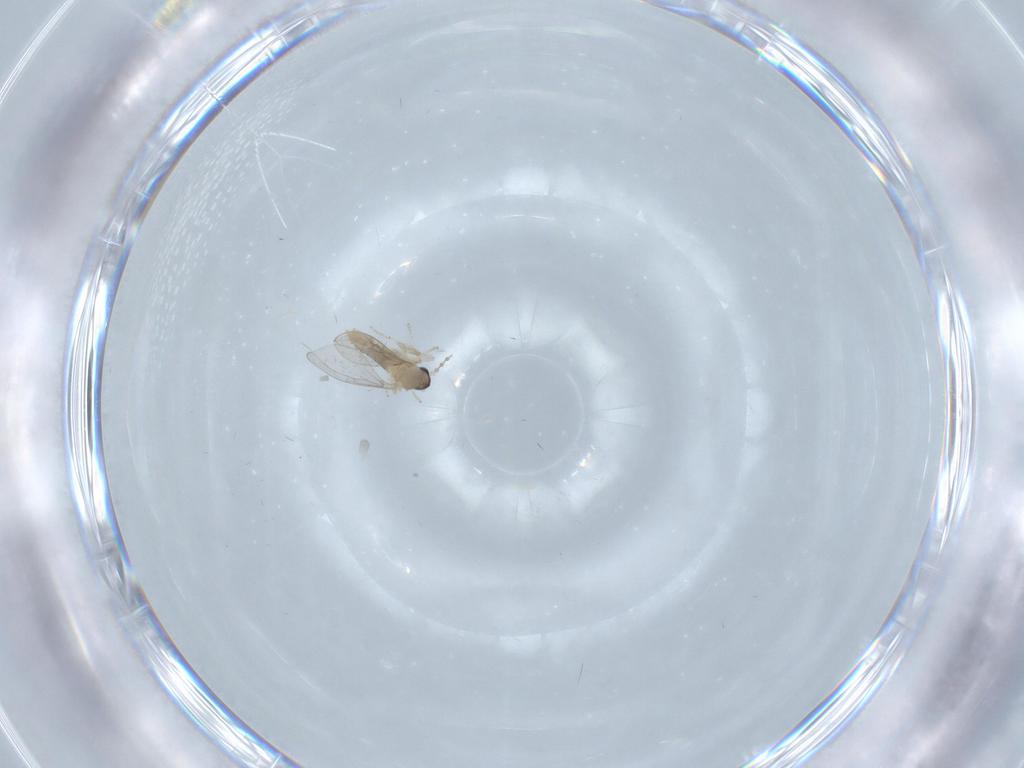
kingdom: Animalia
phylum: Arthropoda
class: Insecta
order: Diptera
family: Cecidomyiidae
